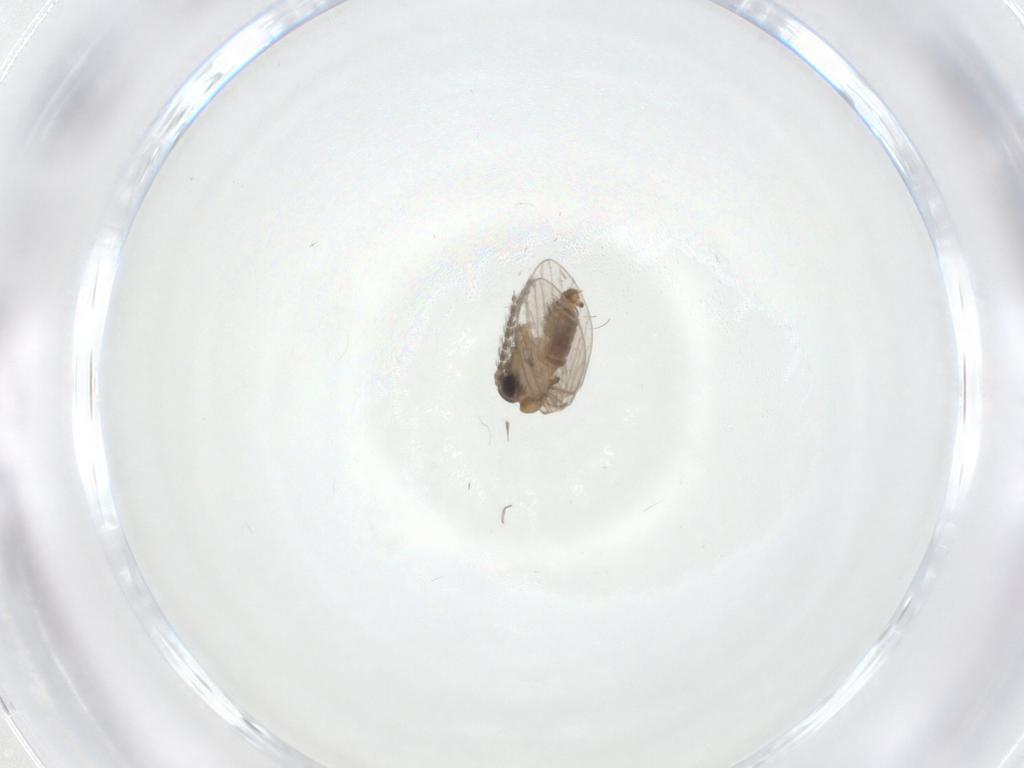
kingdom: Animalia
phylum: Arthropoda
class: Insecta
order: Diptera
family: Psychodidae
